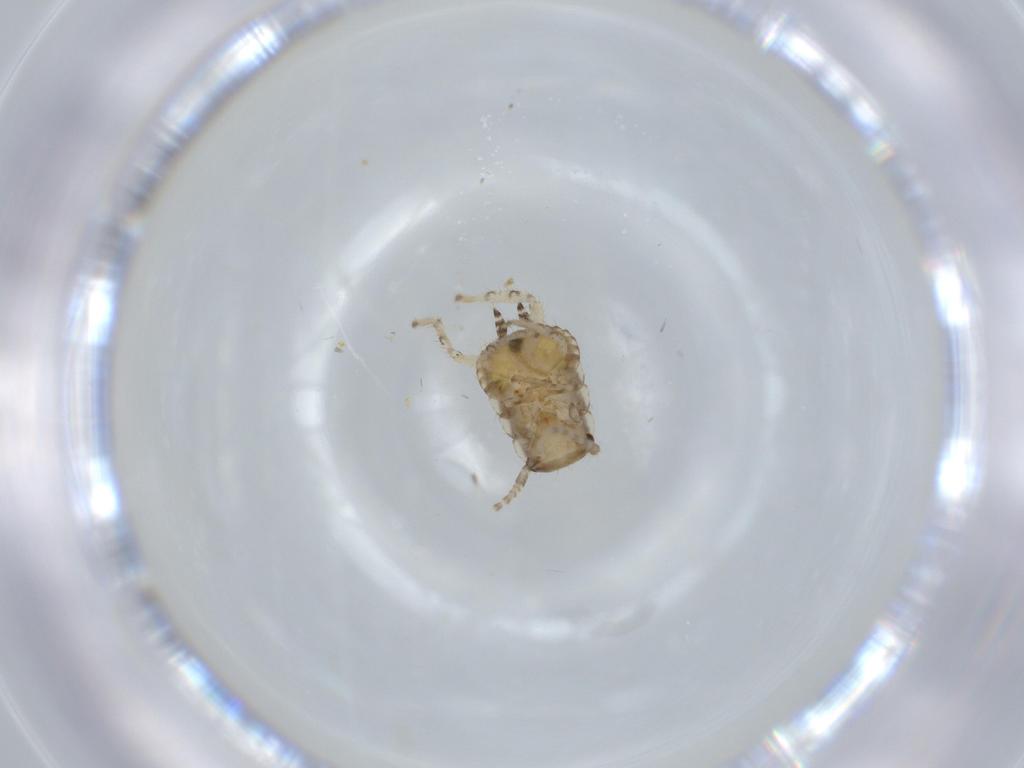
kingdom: Animalia
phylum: Arthropoda
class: Insecta
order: Blattodea
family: Ectobiidae
